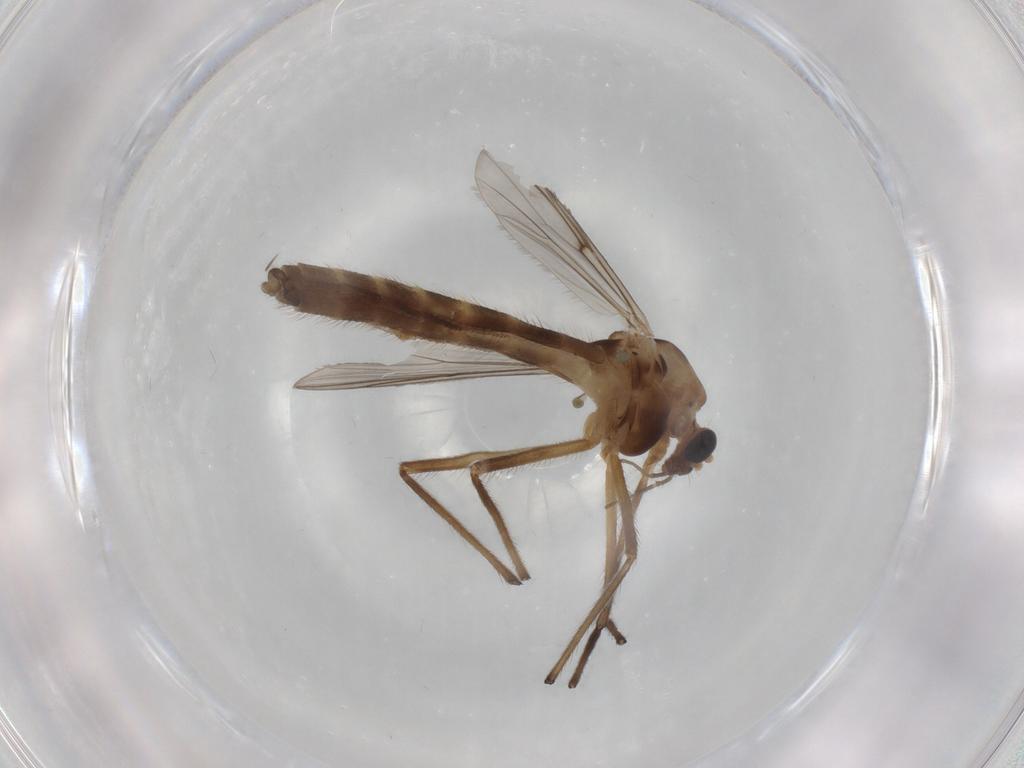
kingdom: Animalia
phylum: Arthropoda
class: Insecta
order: Diptera
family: Chironomidae
